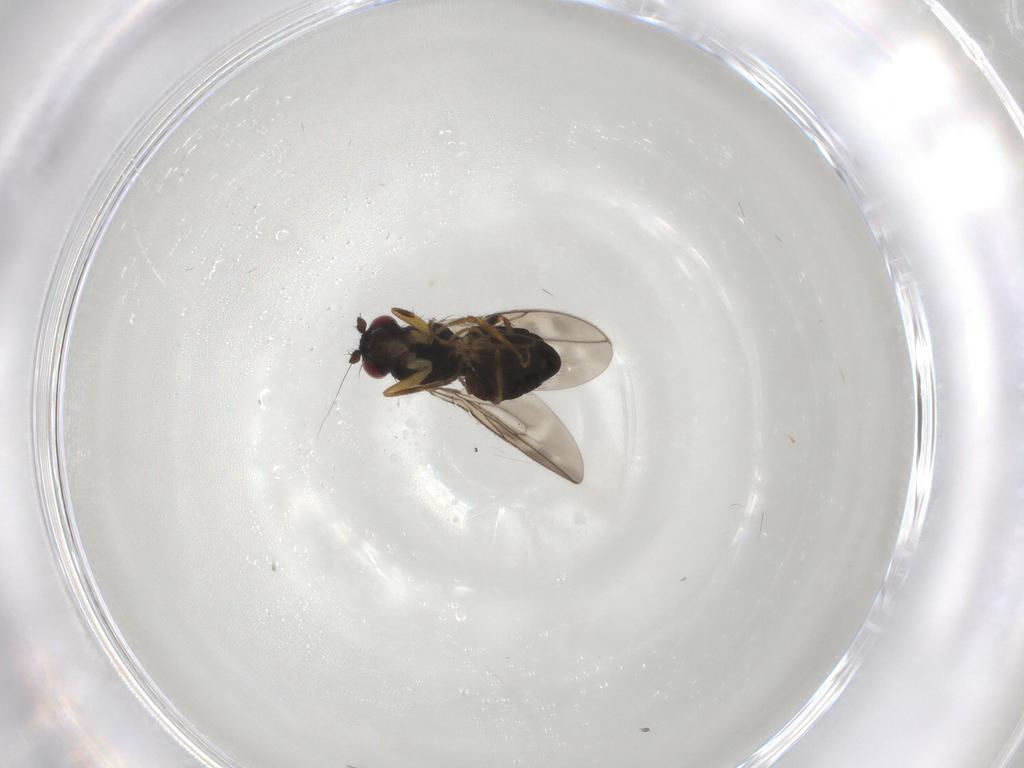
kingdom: Animalia
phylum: Arthropoda
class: Insecta
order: Diptera
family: Sphaeroceridae
